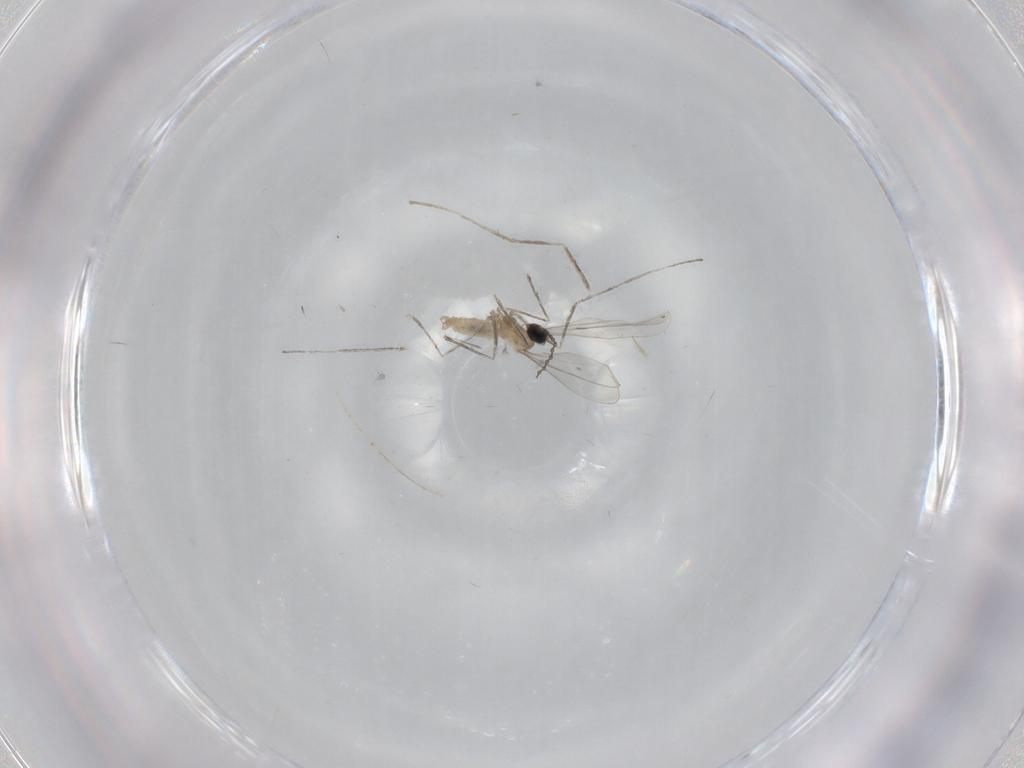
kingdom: Animalia
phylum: Arthropoda
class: Insecta
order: Diptera
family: Cecidomyiidae
